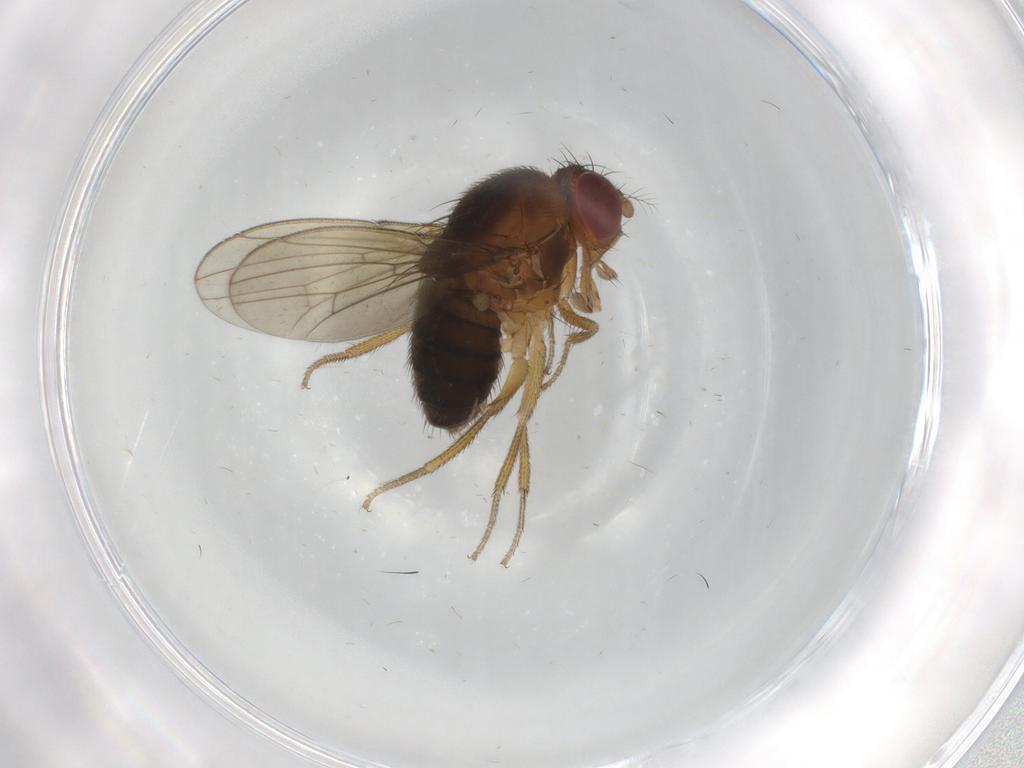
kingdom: Animalia
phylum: Arthropoda
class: Insecta
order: Diptera
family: Drosophilidae
